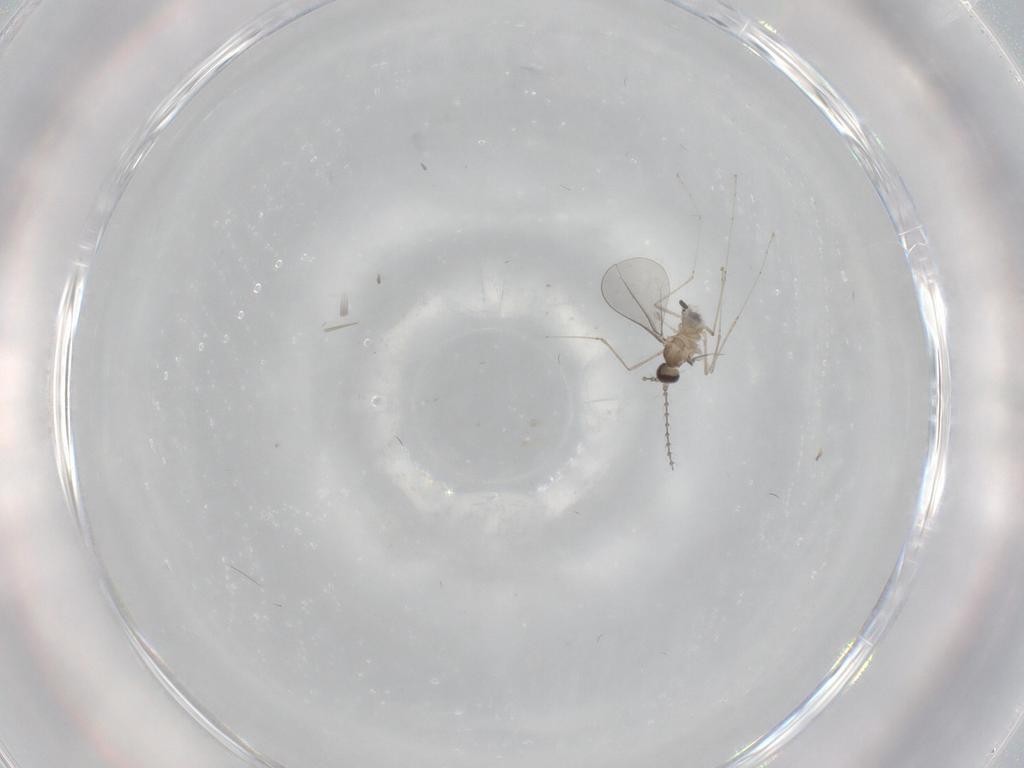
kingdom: Animalia
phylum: Arthropoda
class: Insecta
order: Diptera
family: Cecidomyiidae
